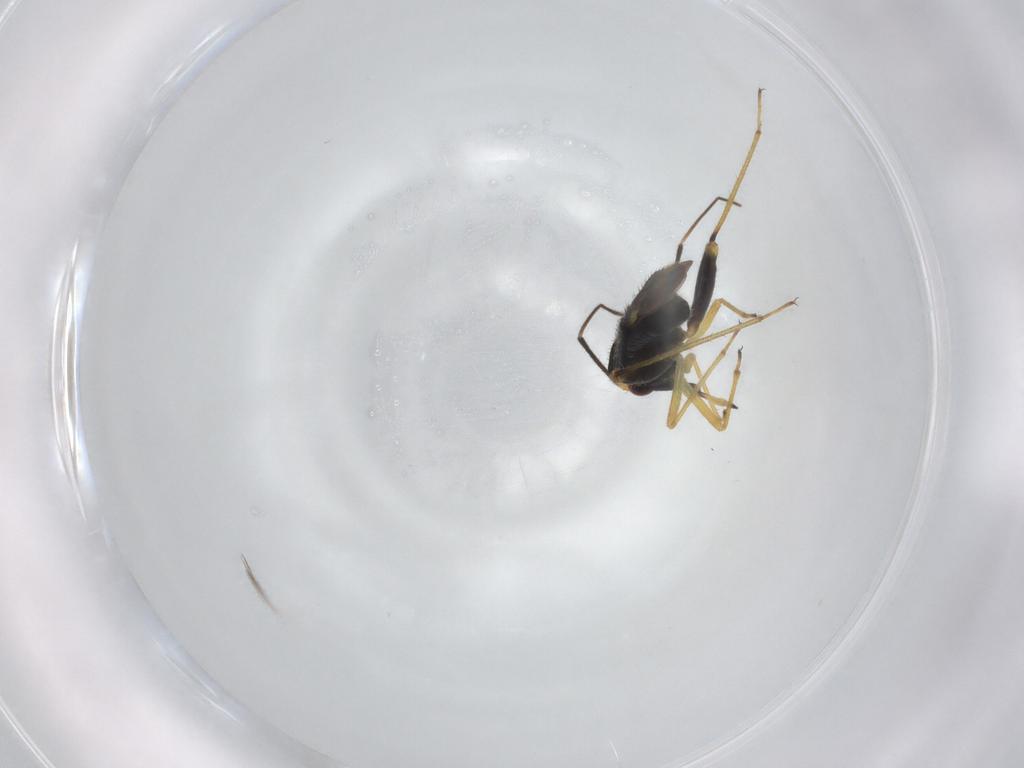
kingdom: Animalia
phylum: Arthropoda
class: Insecta
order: Hemiptera
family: Miridae
